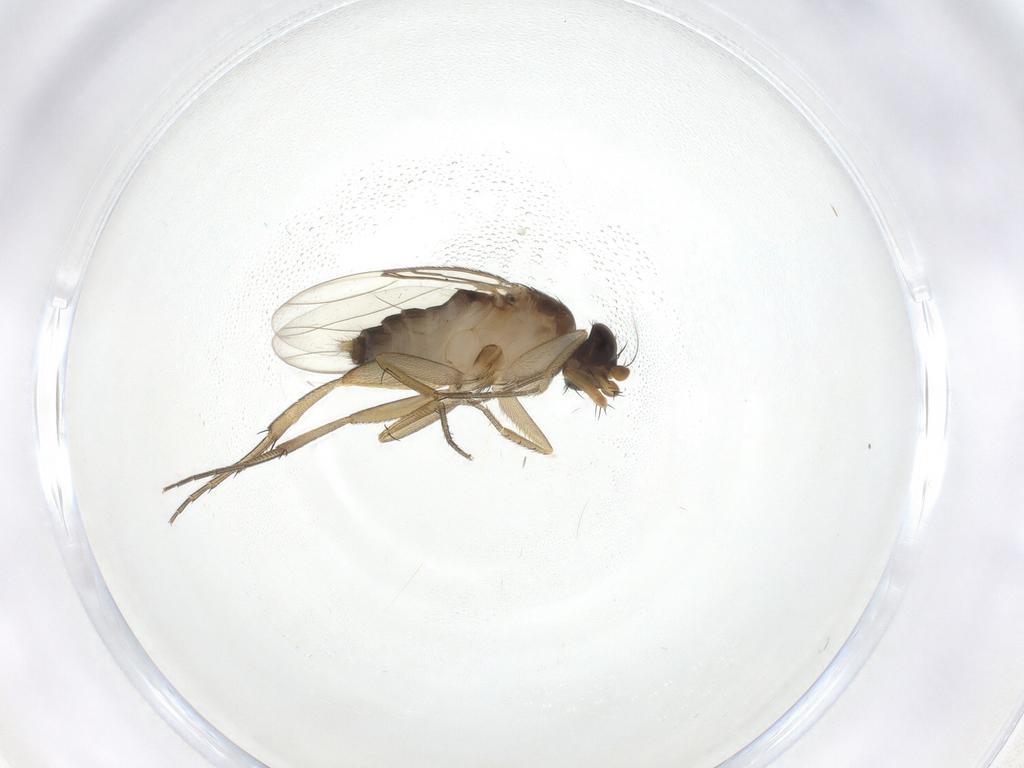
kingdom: Animalia
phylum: Arthropoda
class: Insecta
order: Diptera
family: Phoridae
